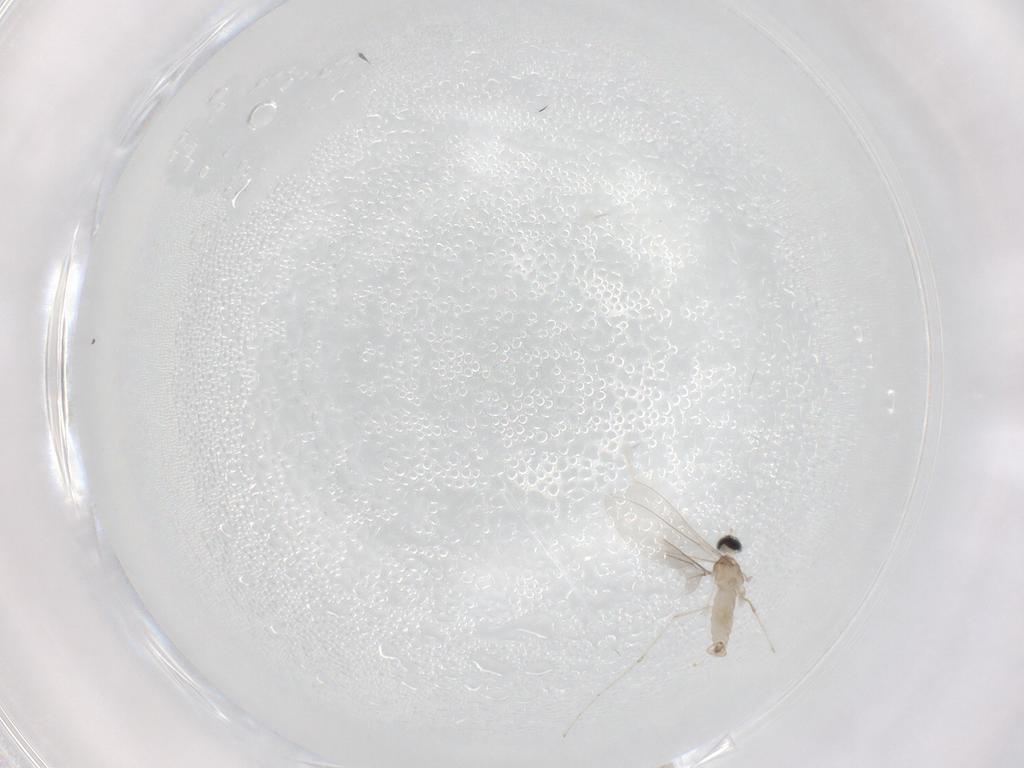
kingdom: Animalia
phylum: Arthropoda
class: Insecta
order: Diptera
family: Cecidomyiidae
